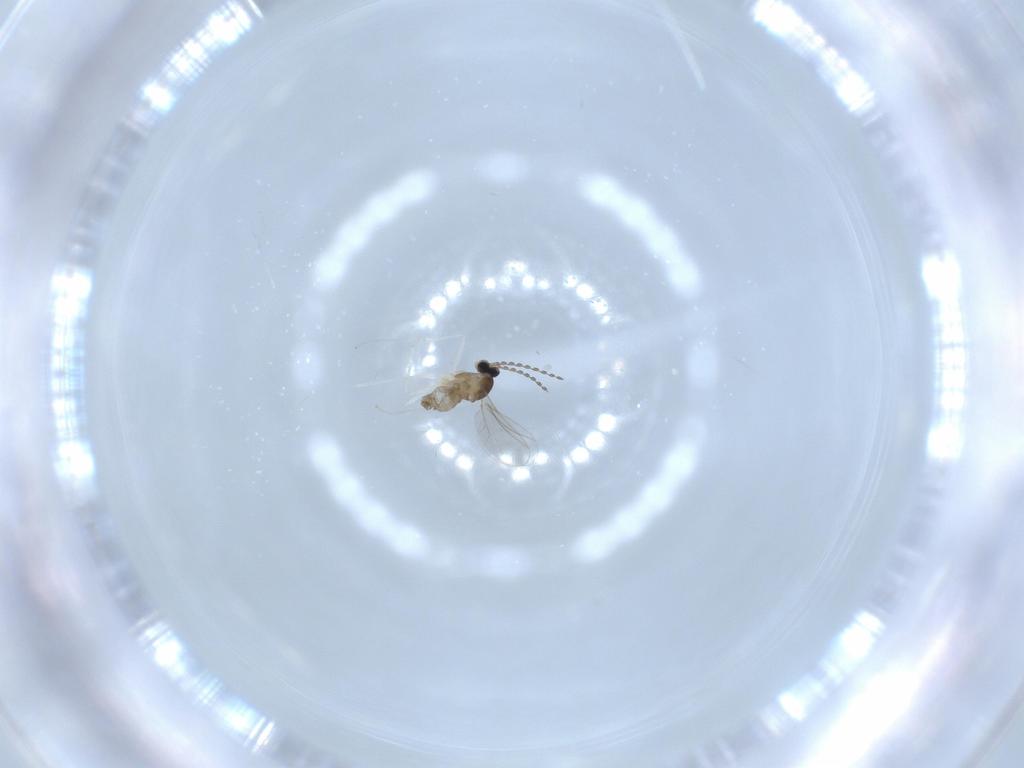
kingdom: Animalia
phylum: Arthropoda
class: Insecta
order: Diptera
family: Cecidomyiidae
